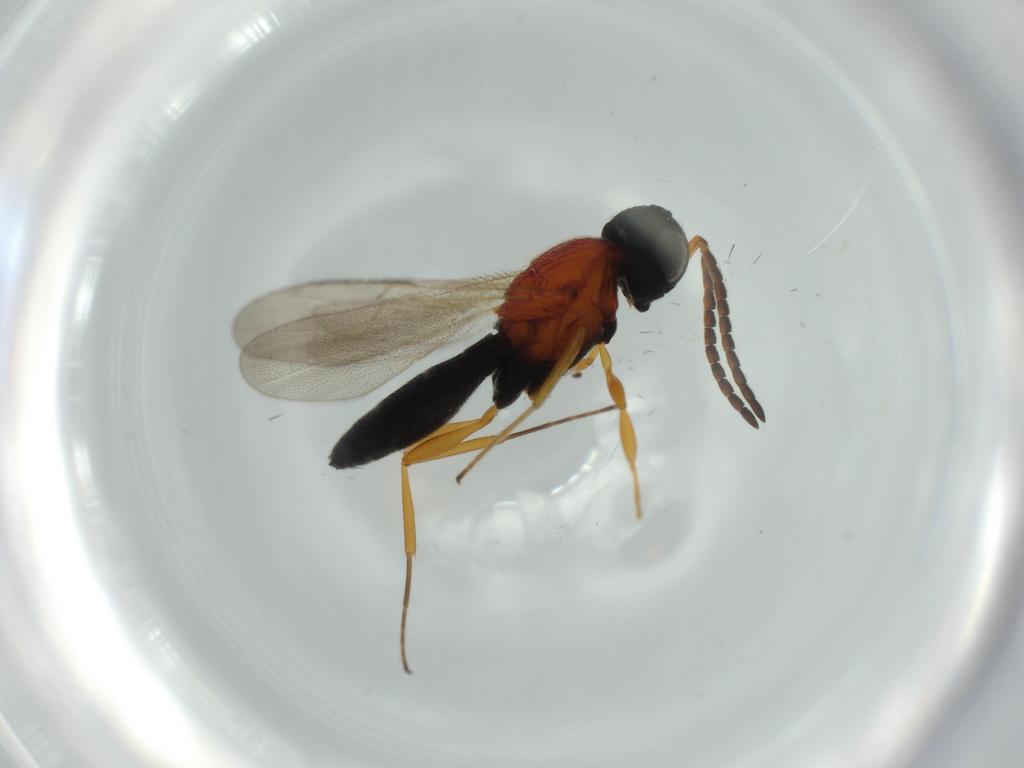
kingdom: Animalia
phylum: Arthropoda
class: Insecta
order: Hymenoptera
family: Scelionidae
